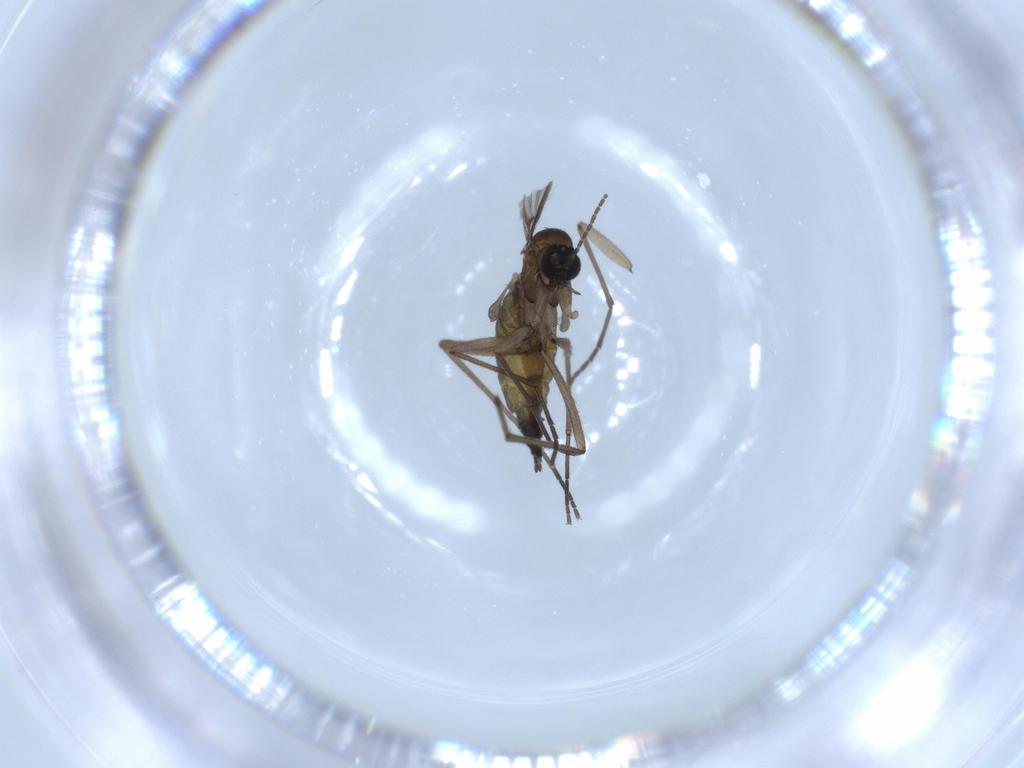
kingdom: Animalia
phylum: Arthropoda
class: Insecta
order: Diptera
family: Sciaridae
